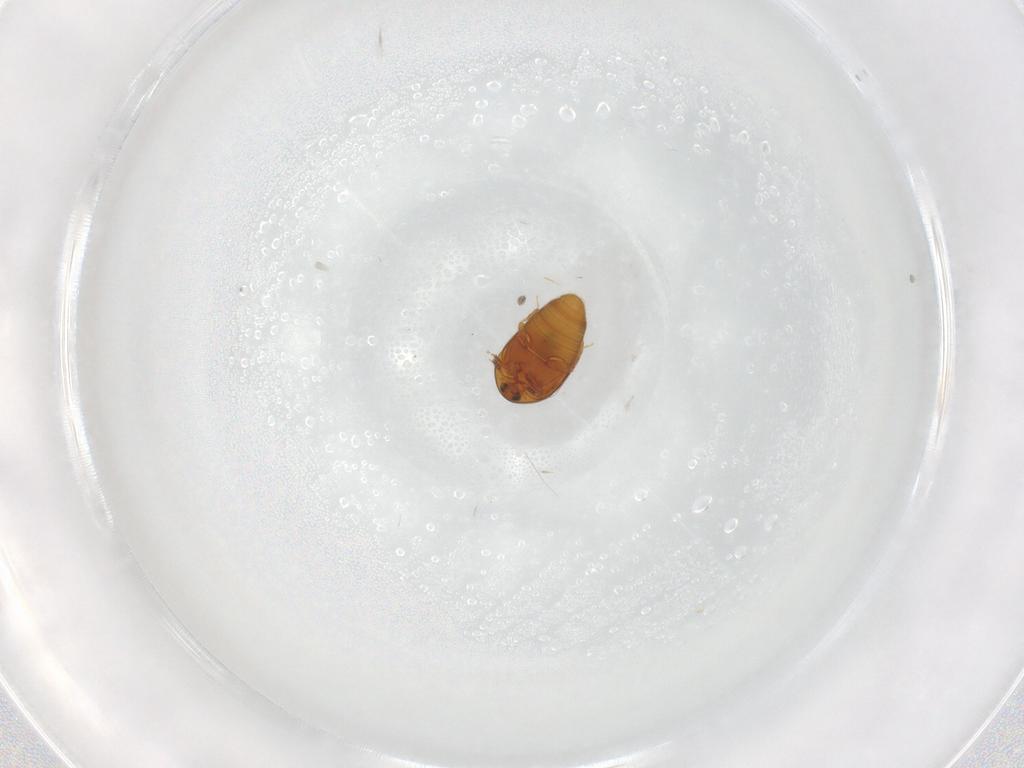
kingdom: Animalia
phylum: Arthropoda
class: Insecta
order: Coleoptera
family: Corylophidae
